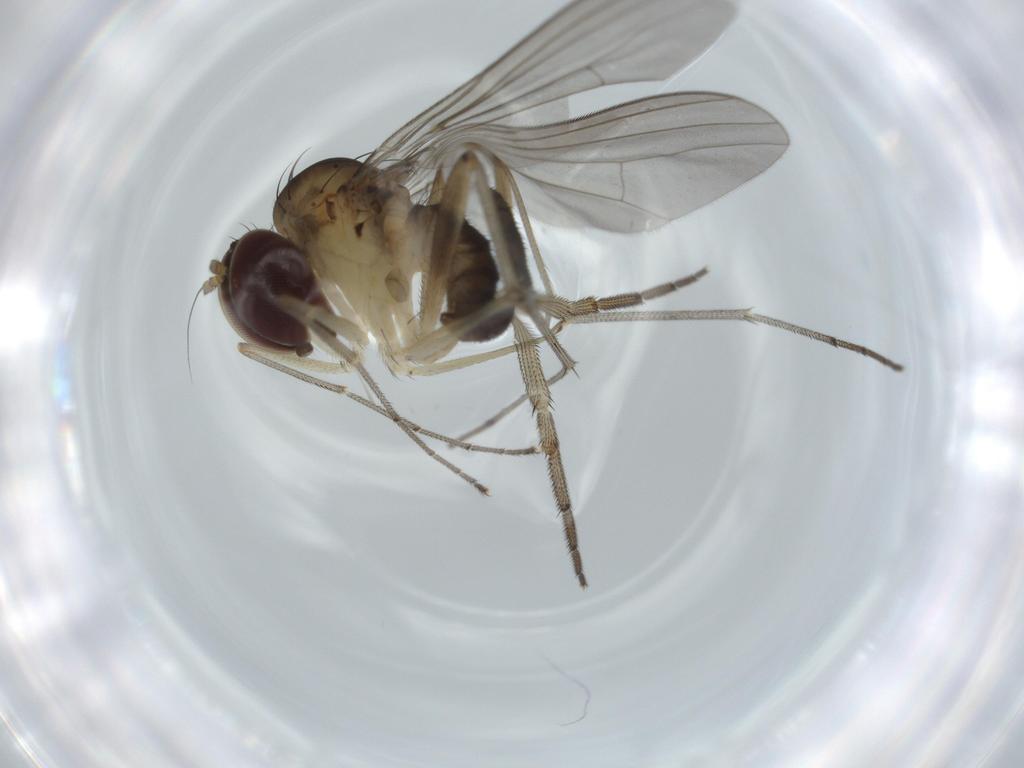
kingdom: Animalia
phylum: Arthropoda
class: Insecta
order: Diptera
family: Dolichopodidae
